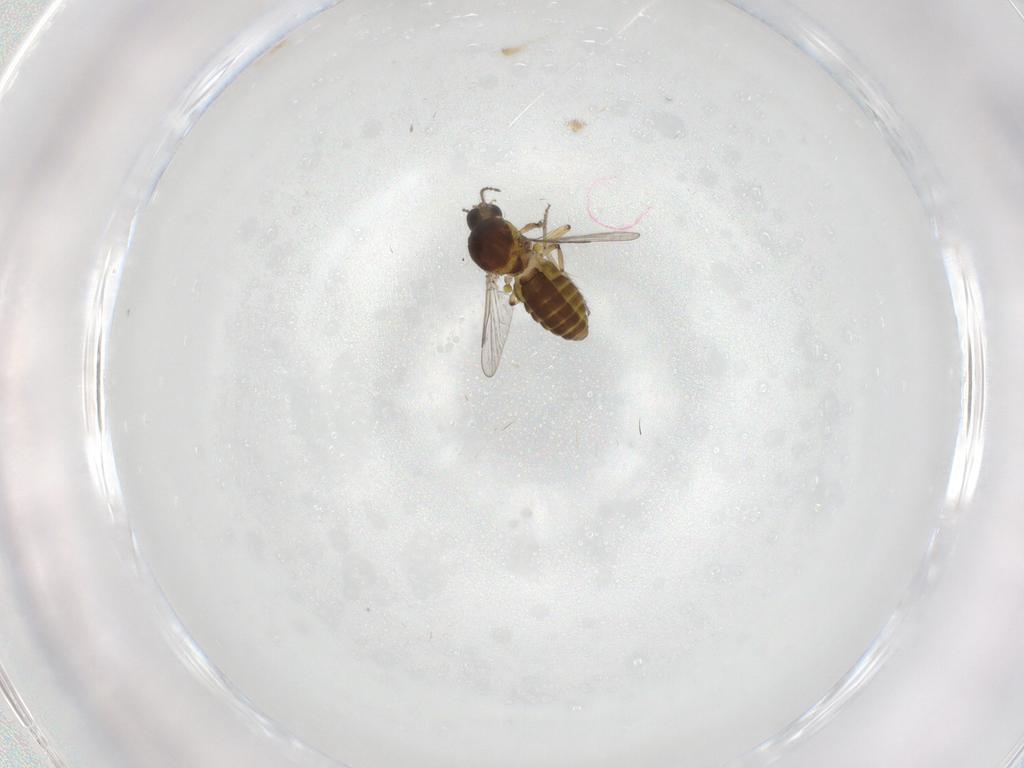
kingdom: Animalia
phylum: Arthropoda
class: Insecta
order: Diptera
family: Ceratopogonidae
